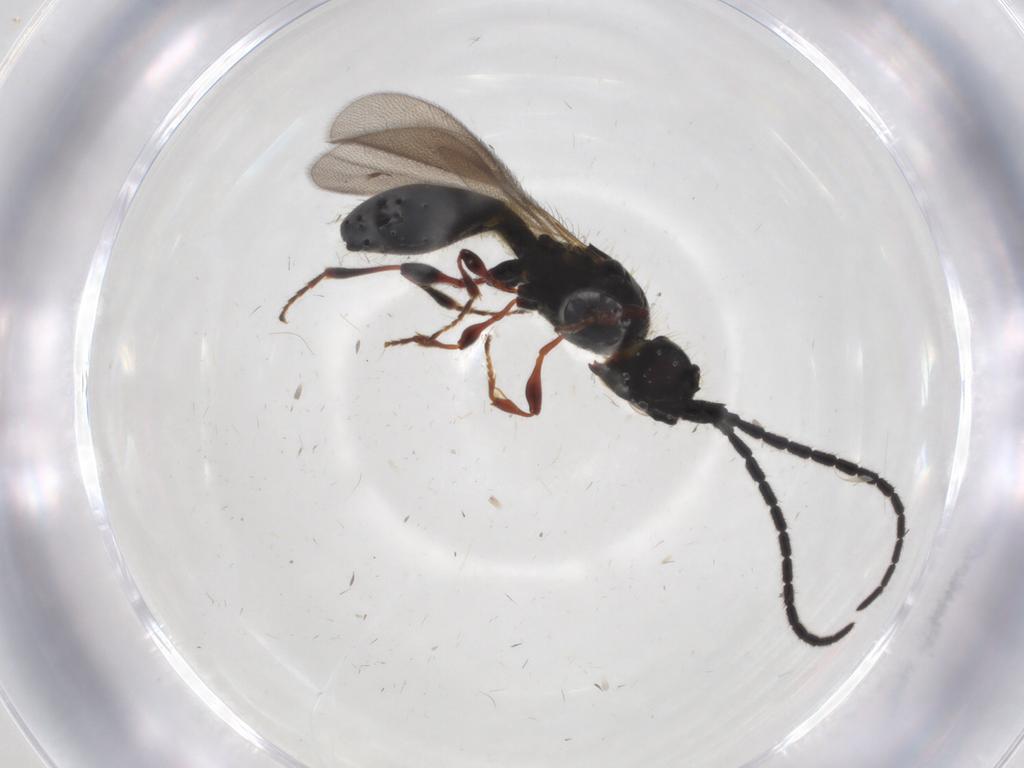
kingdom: Animalia
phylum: Arthropoda
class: Insecta
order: Hymenoptera
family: Diapriidae
